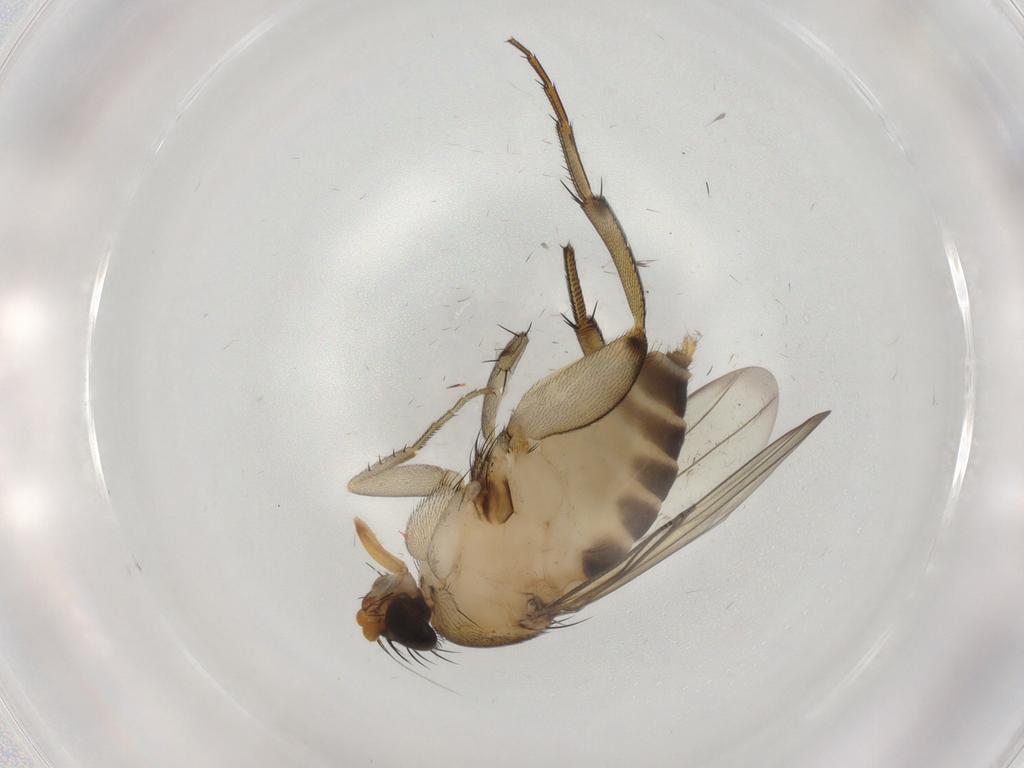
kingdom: Animalia
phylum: Arthropoda
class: Insecta
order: Diptera
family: Phoridae
